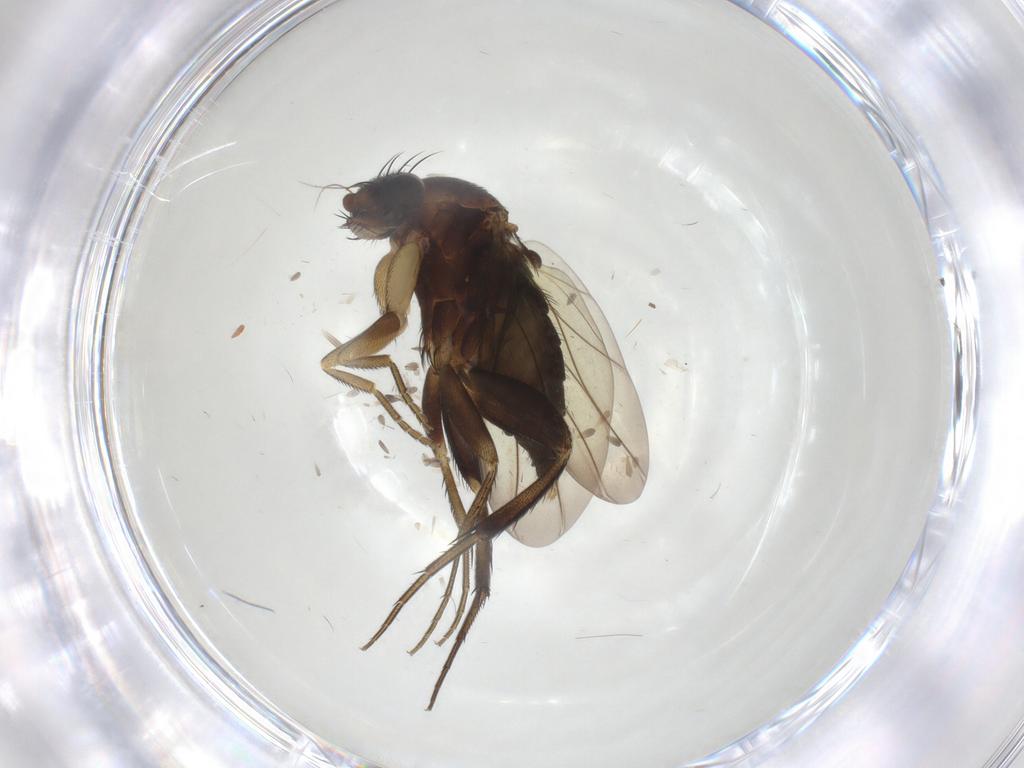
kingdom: Animalia
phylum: Arthropoda
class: Insecta
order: Diptera
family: Phoridae
